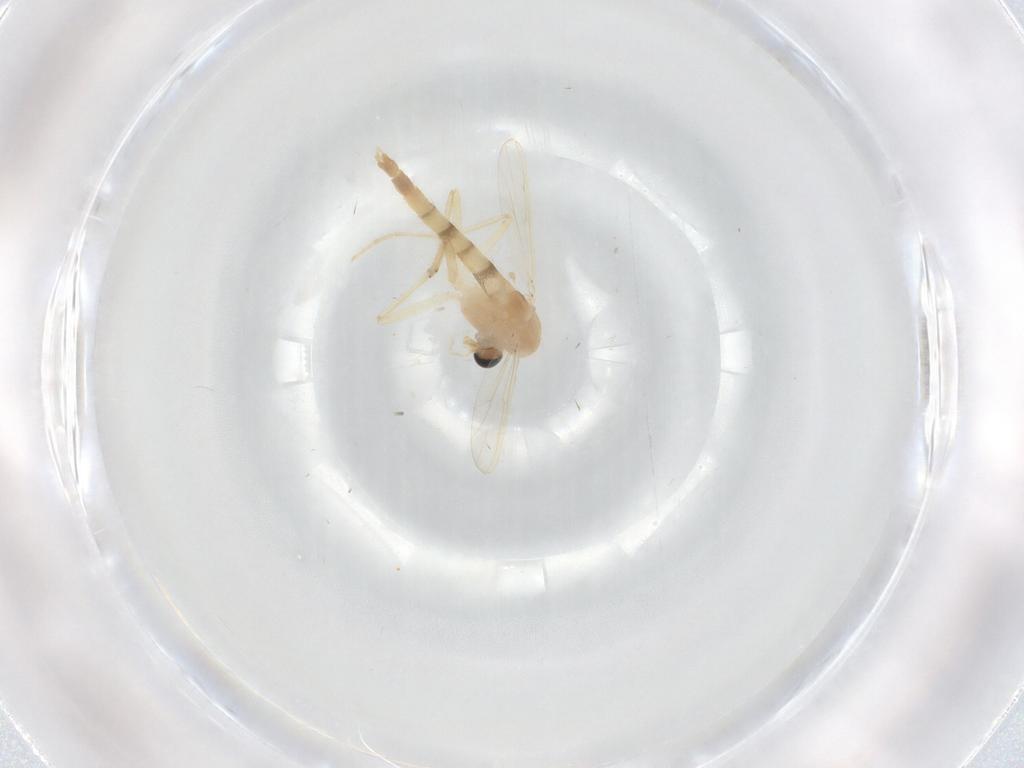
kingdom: Animalia
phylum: Arthropoda
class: Insecta
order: Diptera
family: Chironomidae
